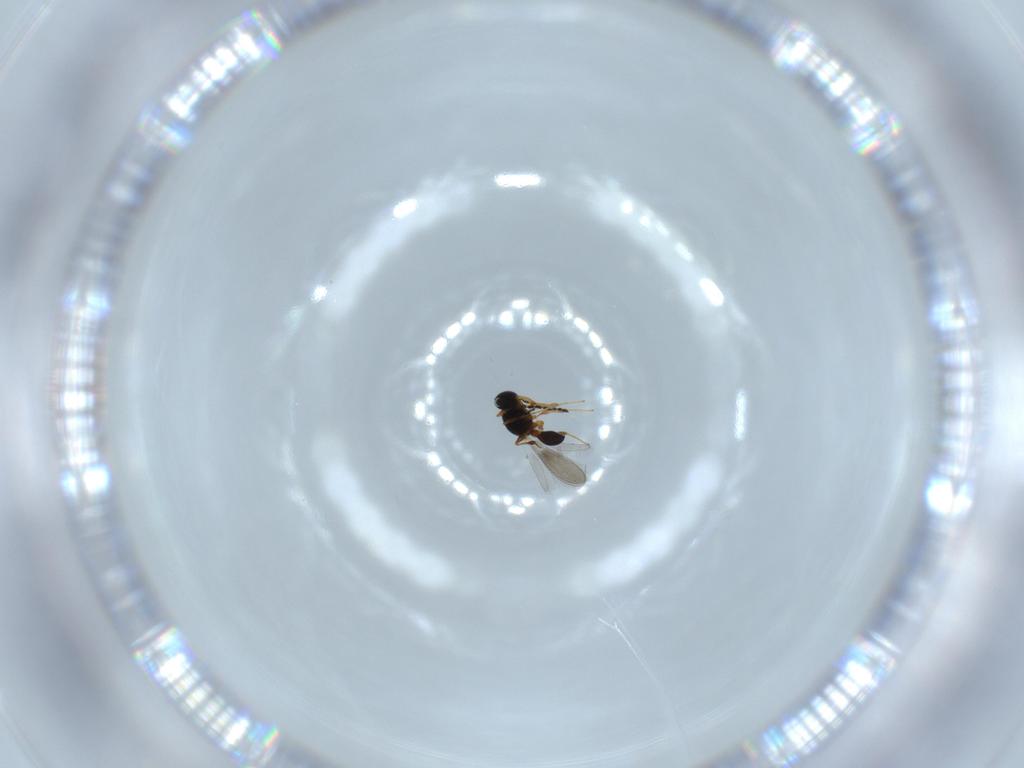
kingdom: Animalia
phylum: Arthropoda
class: Insecta
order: Hymenoptera
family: Platygastridae
